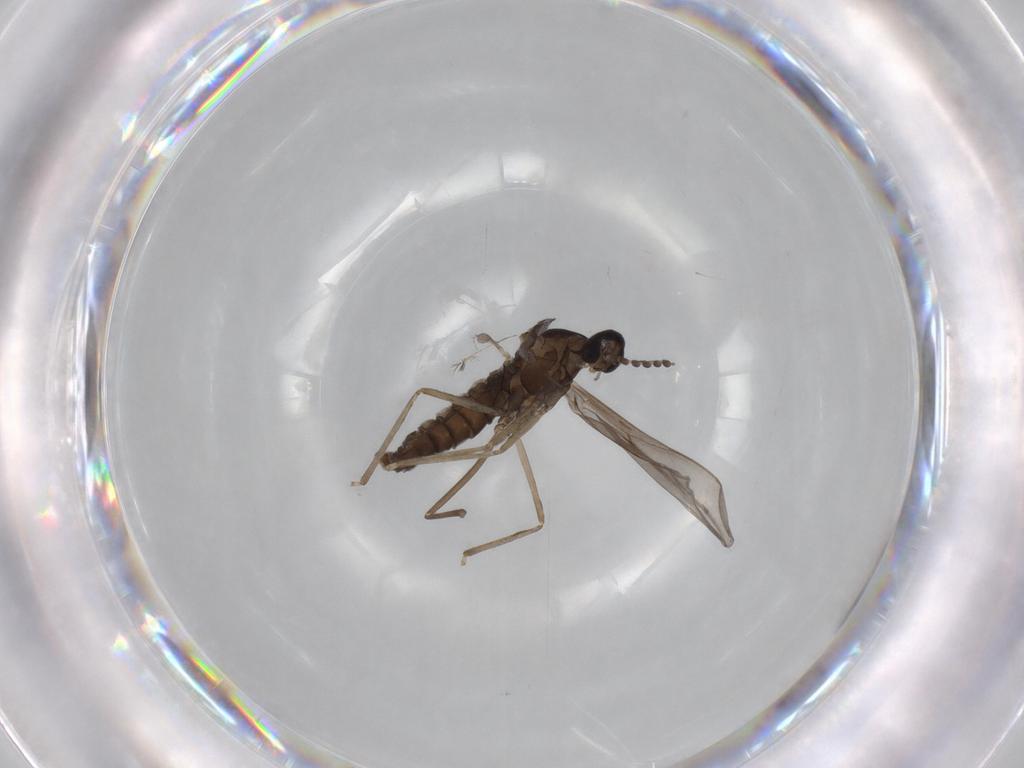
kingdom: Animalia
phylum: Arthropoda
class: Insecta
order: Diptera
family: Cecidomyiidae
